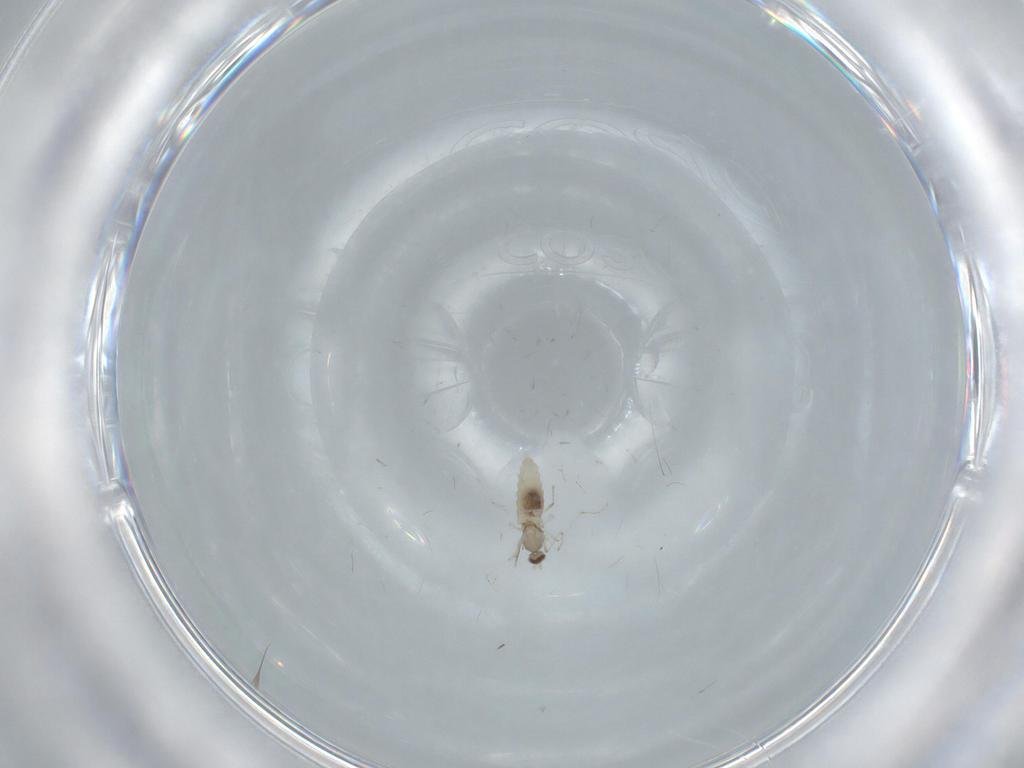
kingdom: Animalia
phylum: Arthropoda
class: Insecta
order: Diptera
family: Cecidomyiidae
